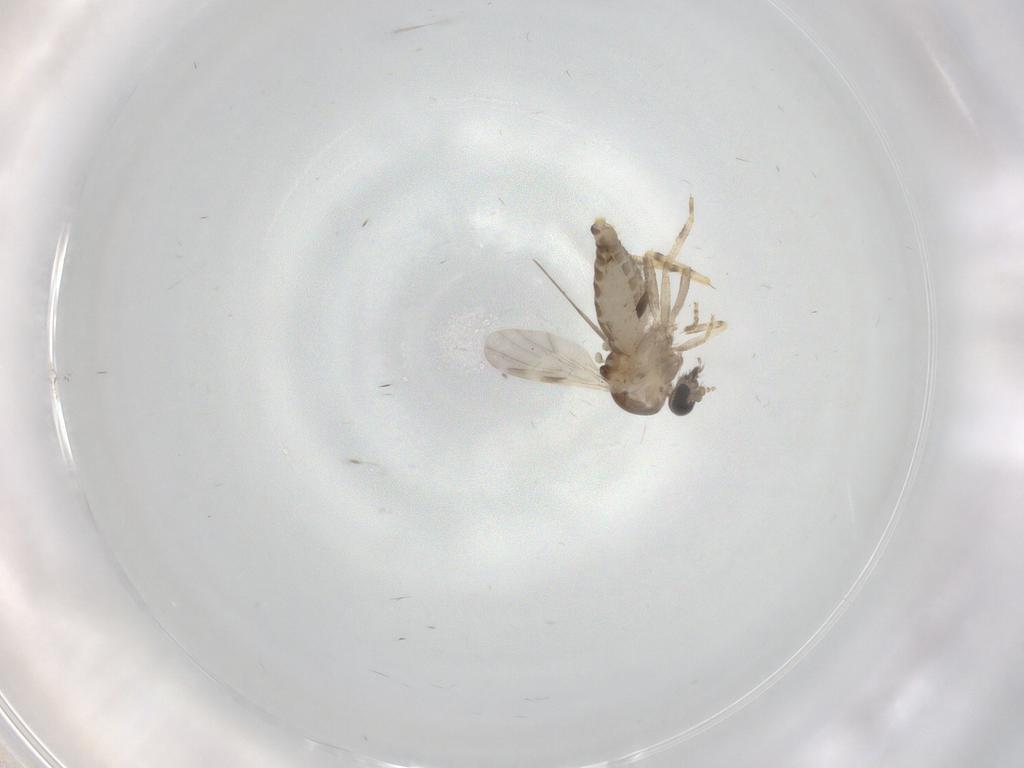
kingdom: Animalia
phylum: Arthropoda
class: Insecta
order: Diptera
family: Ceratopogonidae
